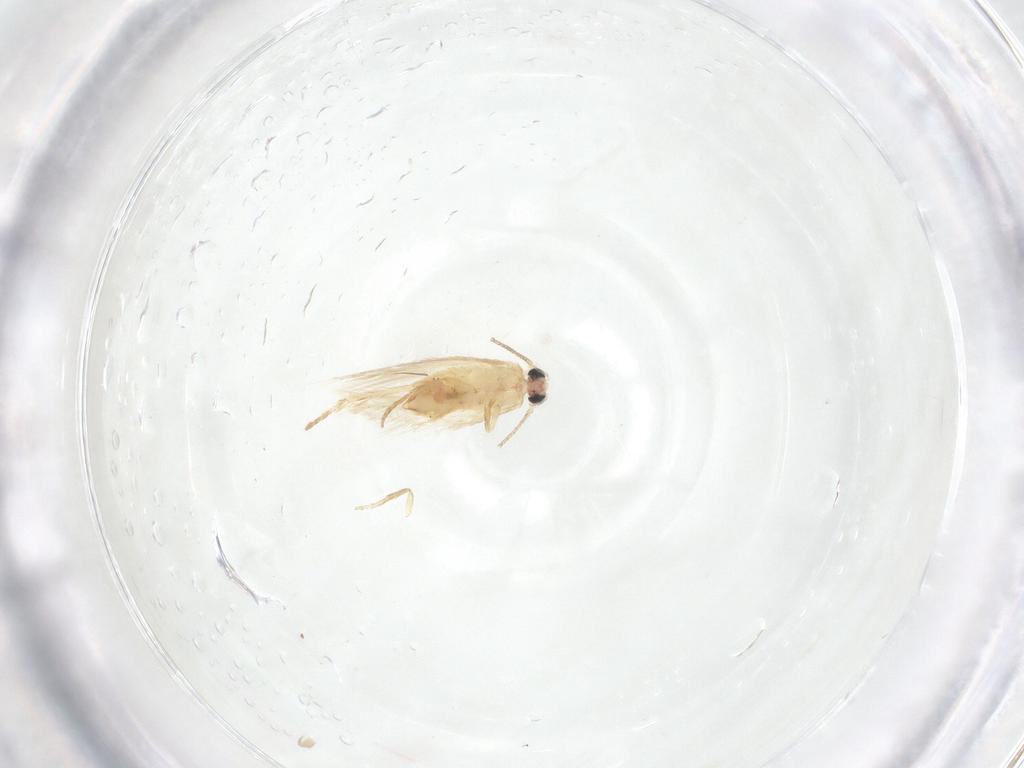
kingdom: Animalia
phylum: Arthropoda
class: Insecta
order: Lepidoptera
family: Nepticulidae
